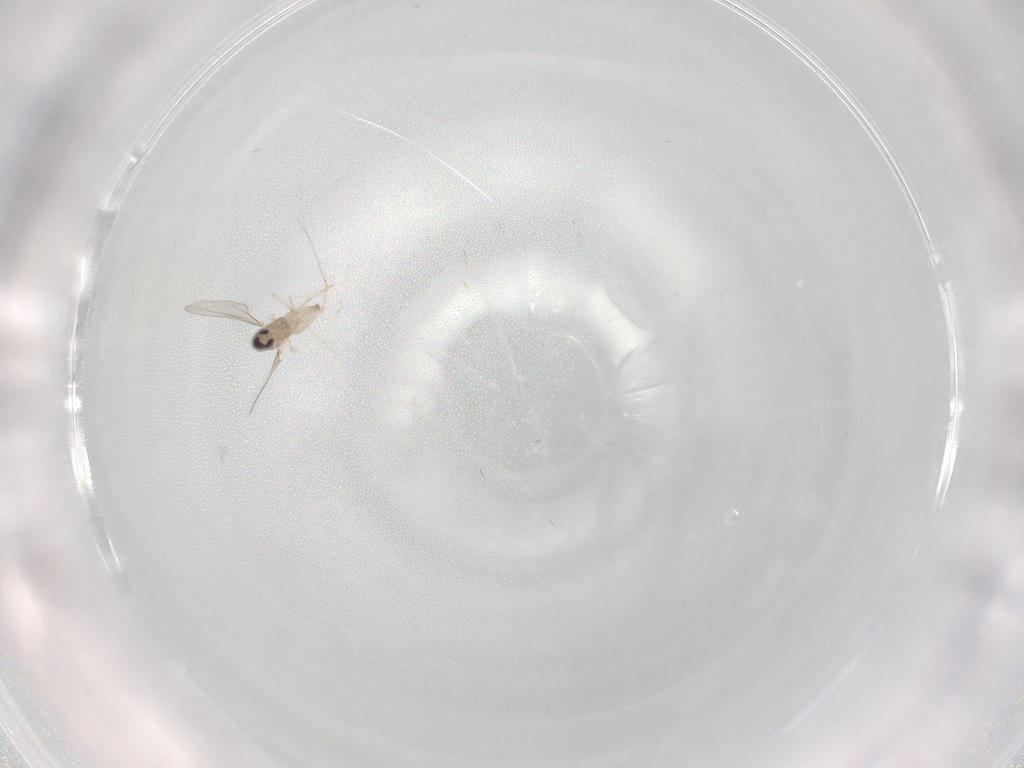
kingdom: Animalia
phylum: Arthropoda
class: Insecta
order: Diptera
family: Cecidomyiidae
